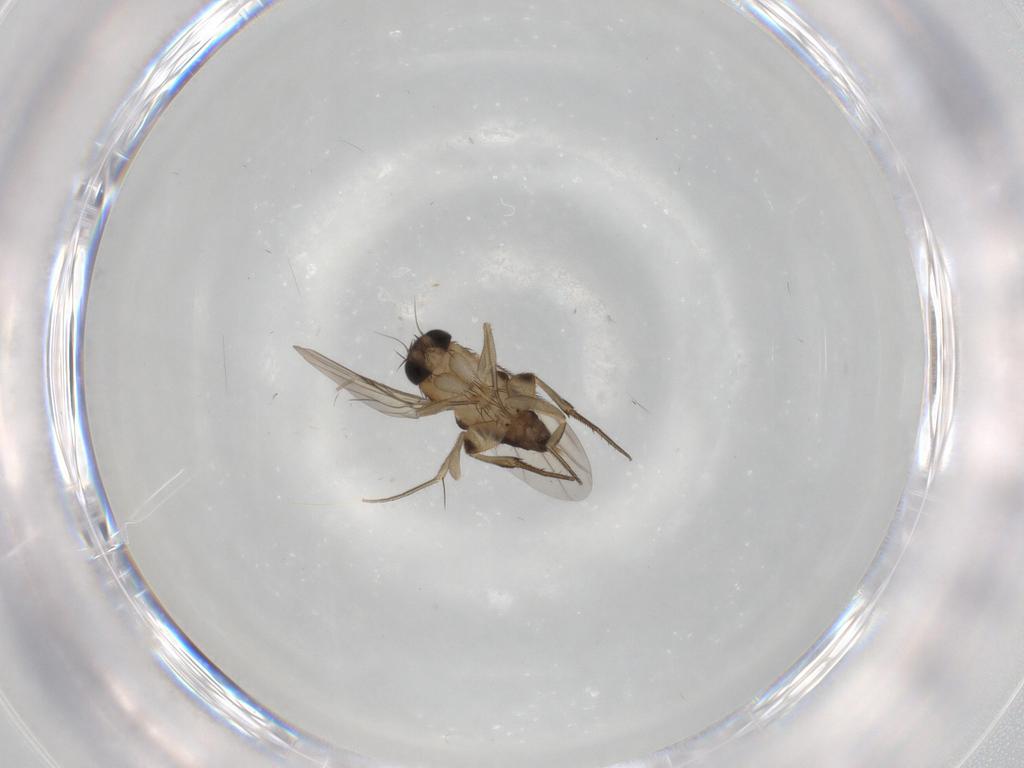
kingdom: Animalia
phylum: Arthropoda
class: Insecta
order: Diptera
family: Phoridae
